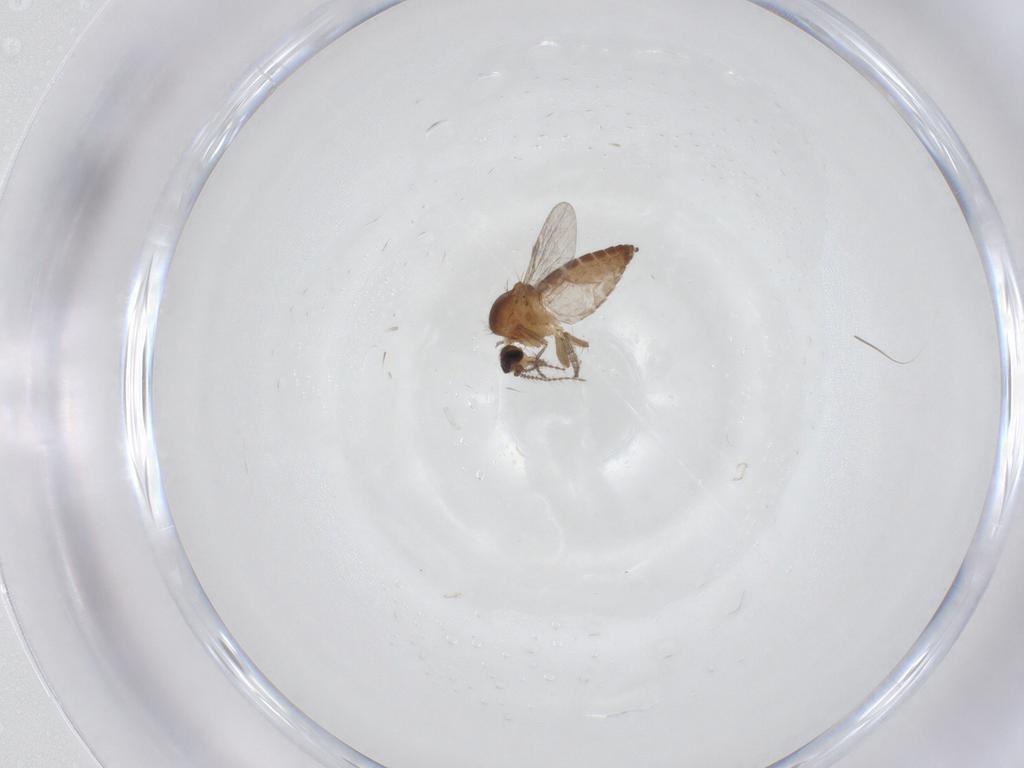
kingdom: Animalia
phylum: Arthropoda
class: Insecta
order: Diptera
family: Ceratopogonidae
